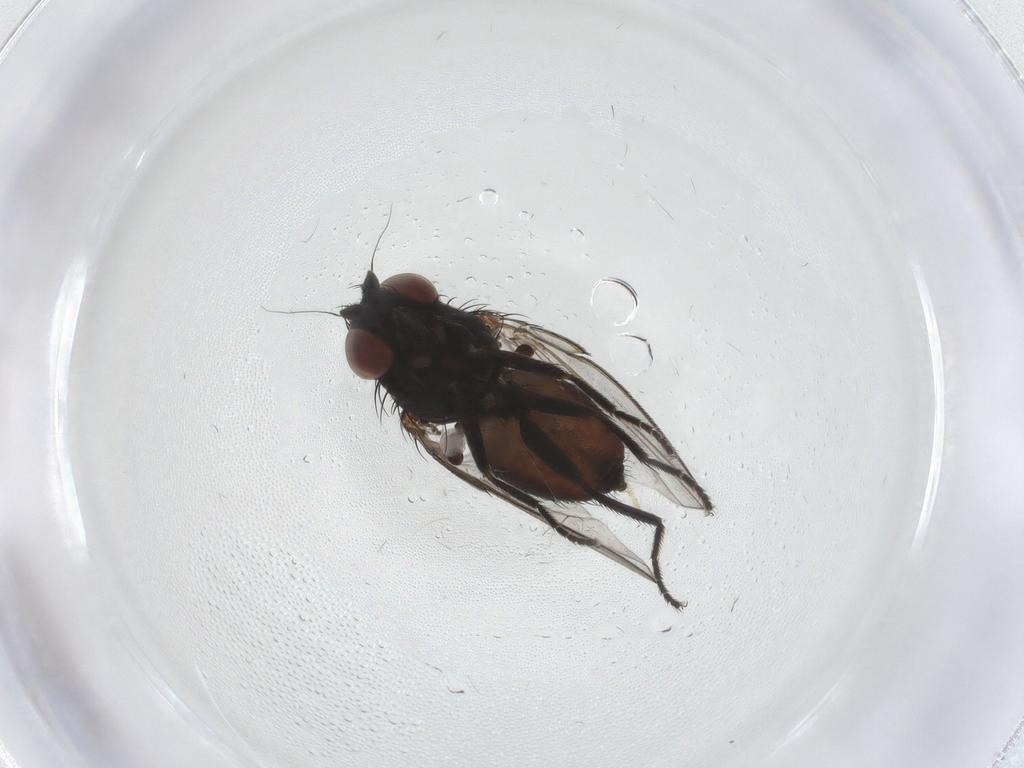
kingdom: Animalia
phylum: Arthropoda
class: Insecta
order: Diptera
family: Milichiidae
